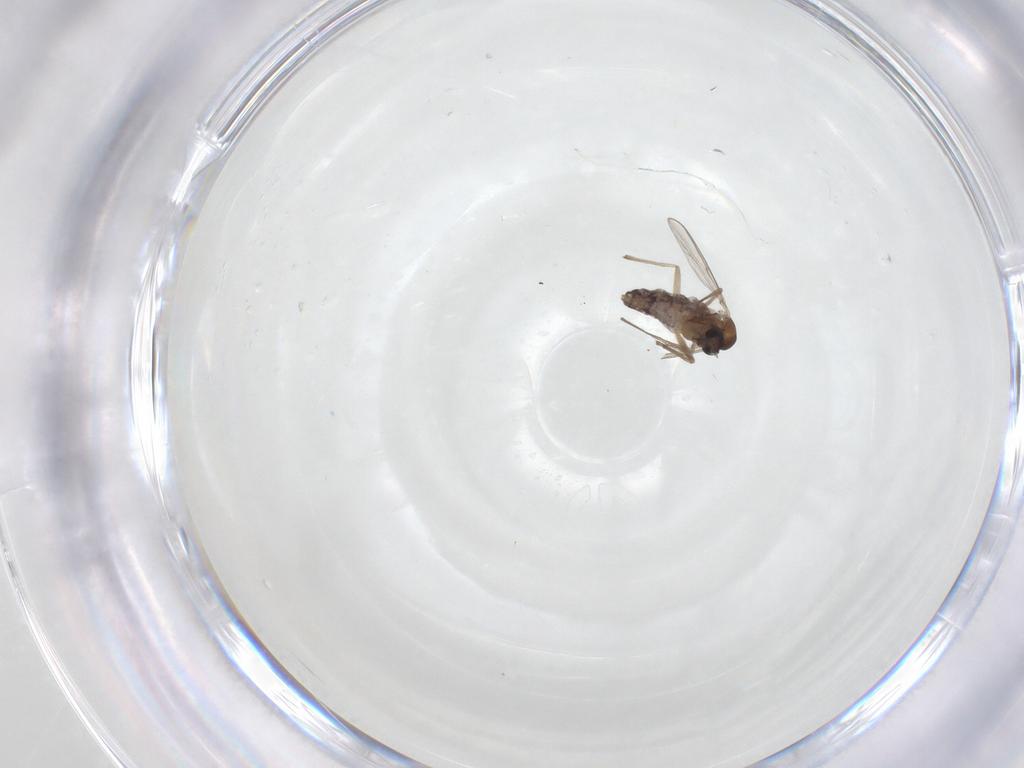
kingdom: Animalia
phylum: Arthropoda
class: Insecta
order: Diptera
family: Chironomidae
